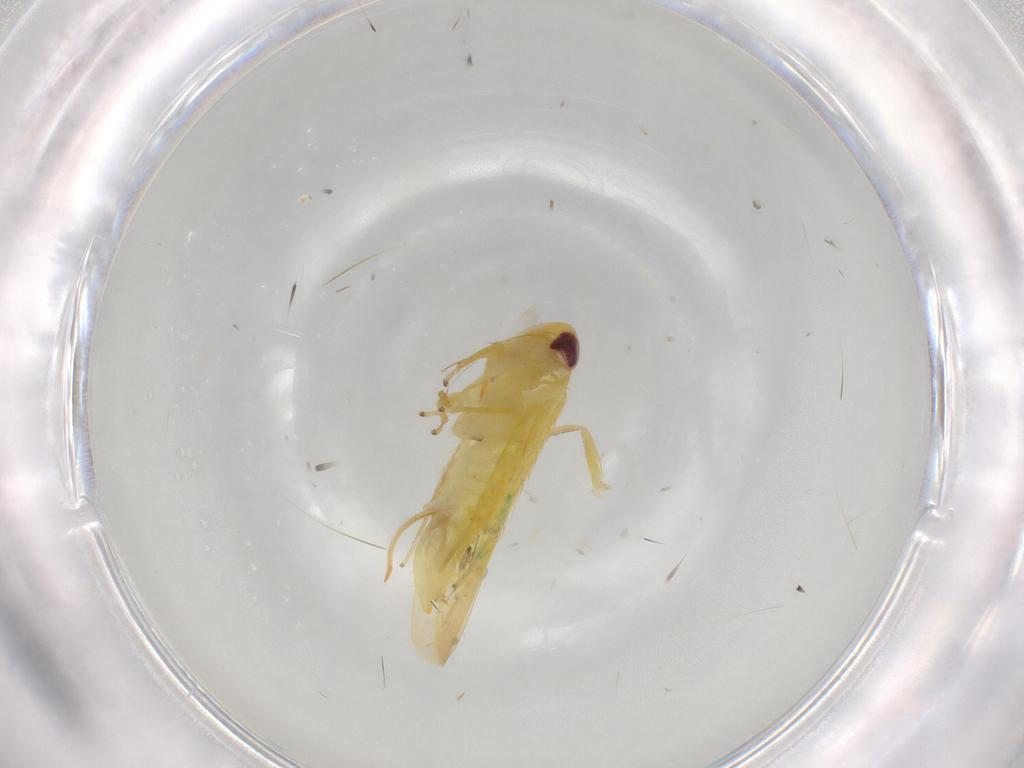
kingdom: Animalia
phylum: Arthropoda
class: Insecta
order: Hemiptera
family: Cicadellidae
